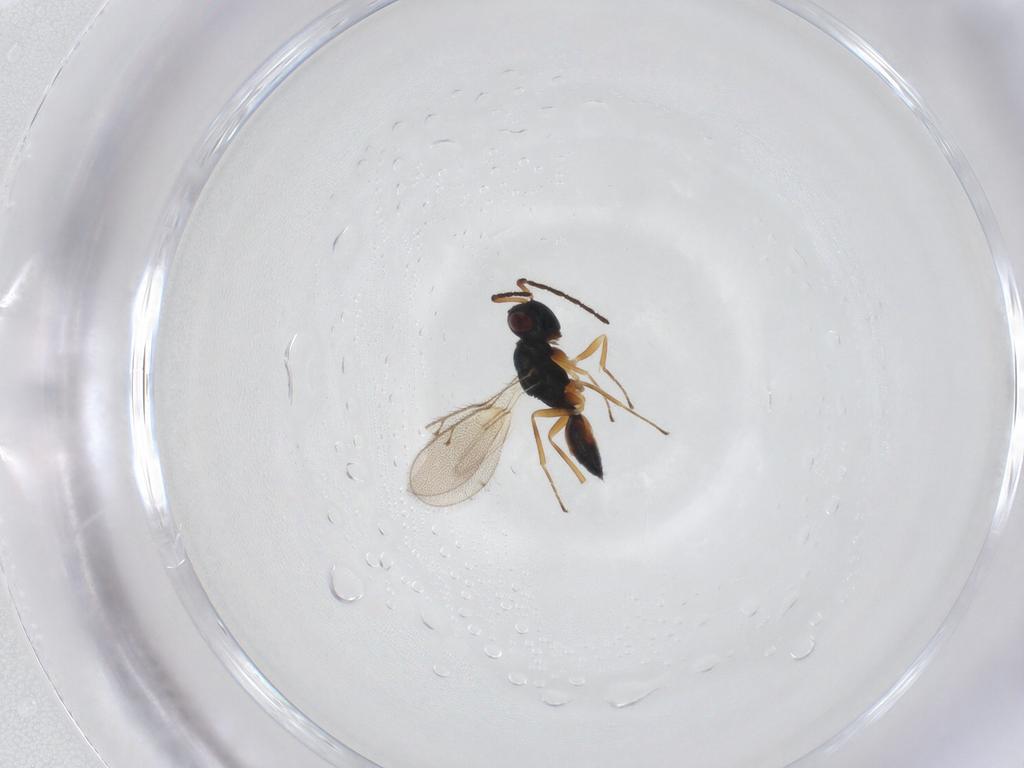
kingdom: Animalia
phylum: Arthropoda
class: Insecta
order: Hymenoptera
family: Pteromalidae
